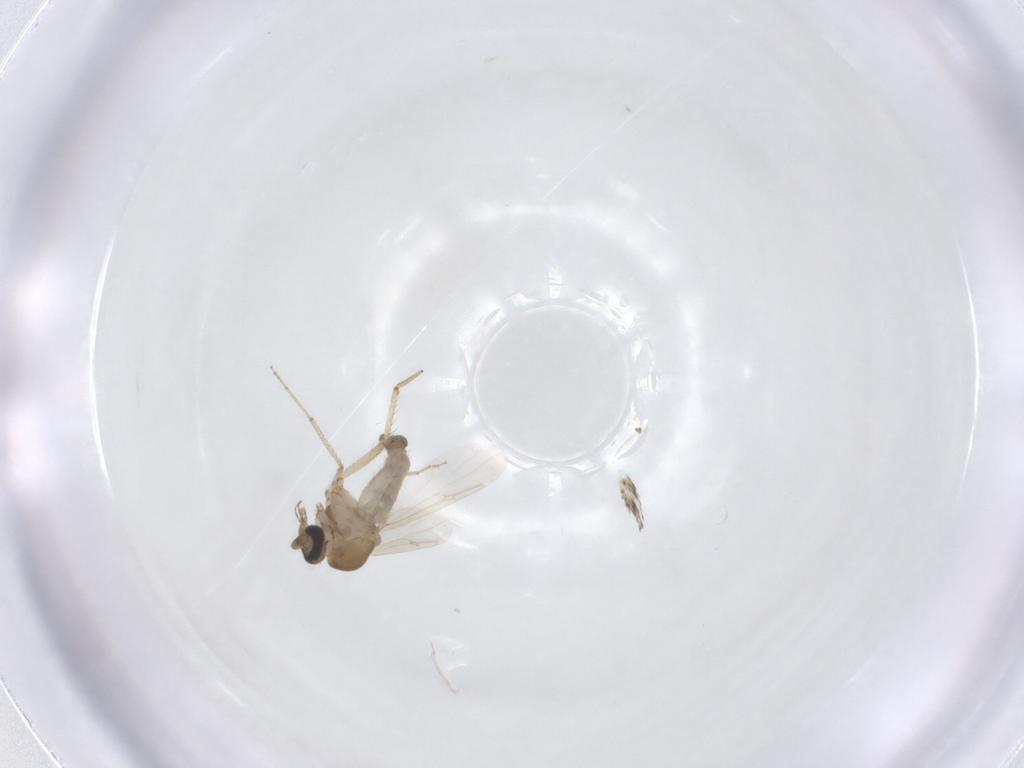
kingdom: Animalia
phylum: Arthropoda
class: Insecta
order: Diptera
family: Ceratopogonidae
